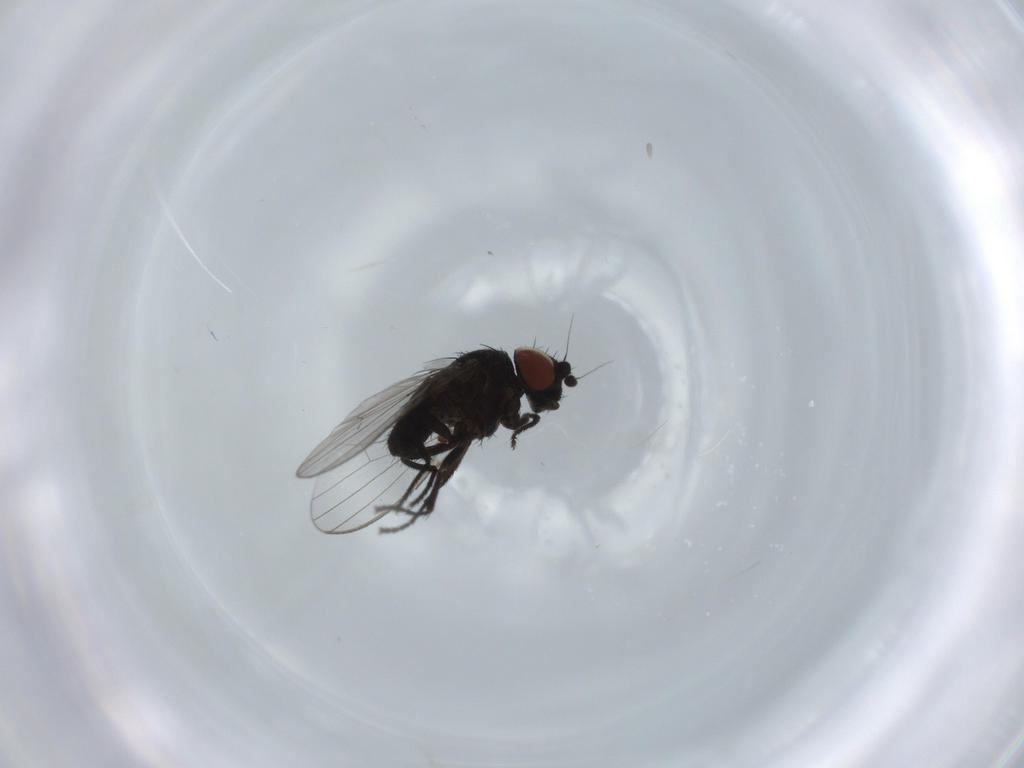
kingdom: Animalia
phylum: Arthropoda
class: Insecta
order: Diptera
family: Milichiidae
